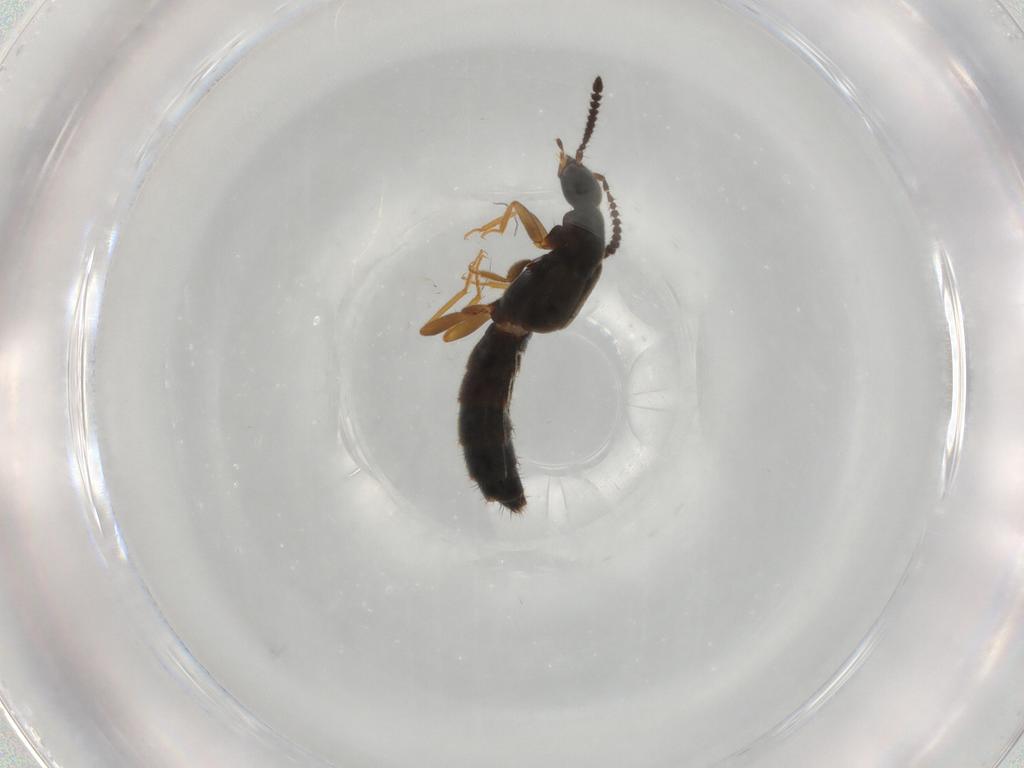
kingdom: Animalia
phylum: Arthropoda
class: Insecta
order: Coleoptera
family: Staphylinidae
